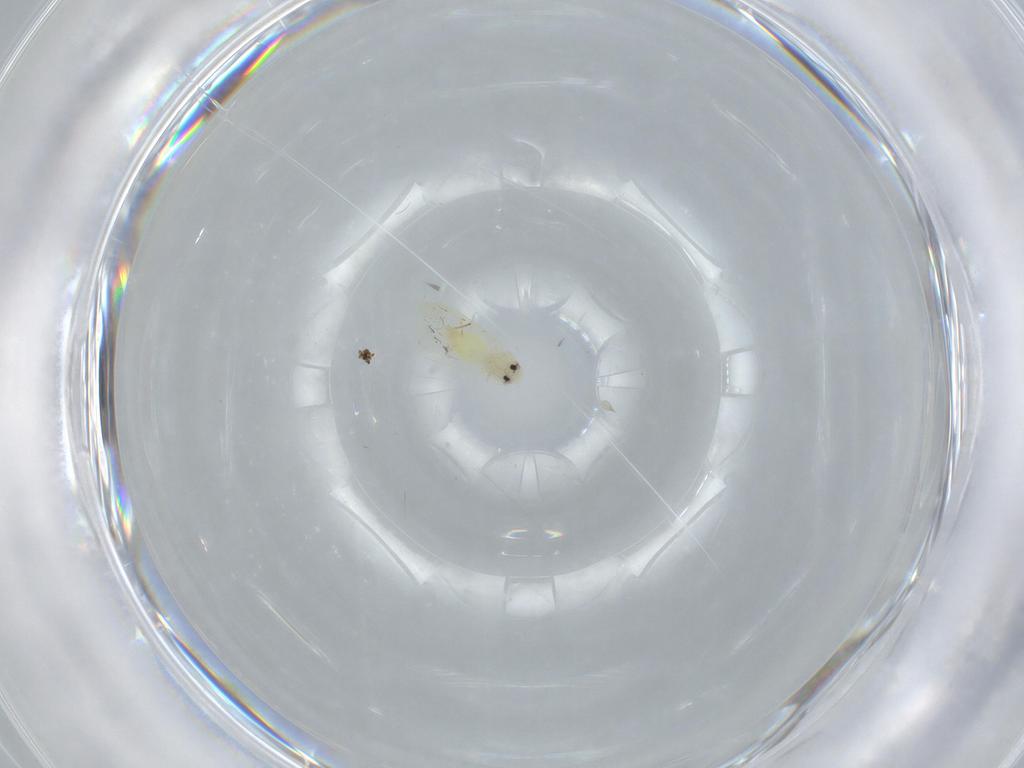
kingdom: Animalia
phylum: Arthropoda
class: Insecta
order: Hemiptera
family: Aleyrodidae
